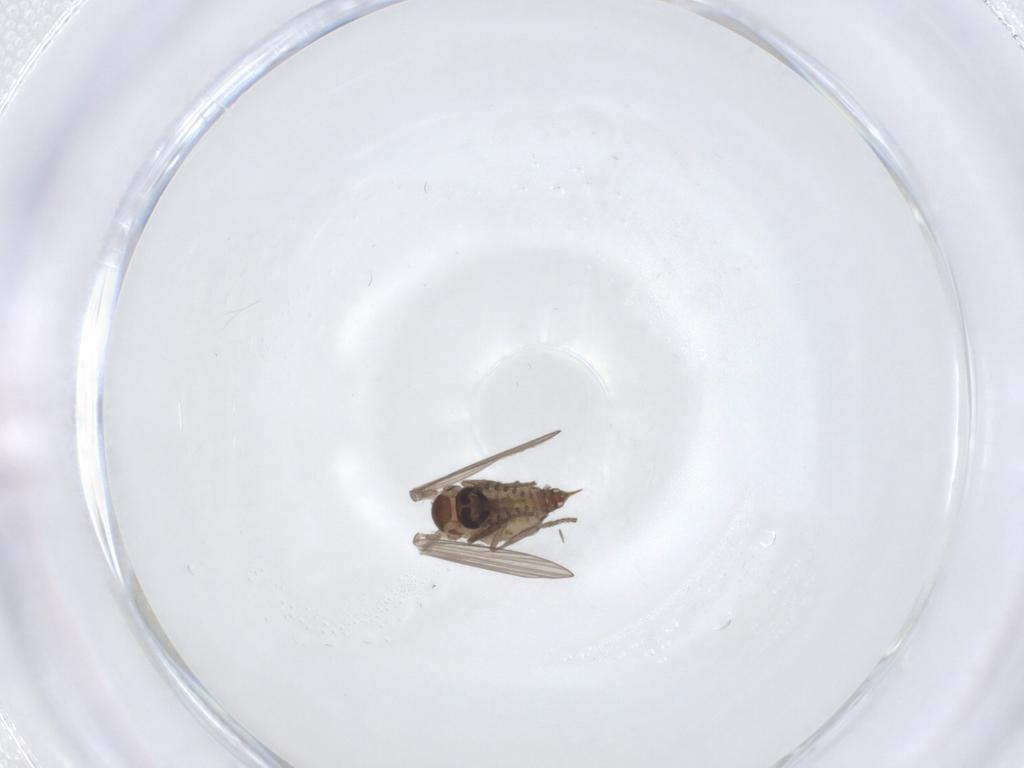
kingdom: Animalia
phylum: Arthropoda
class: Insecta
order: Diptera
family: Psychodidae
